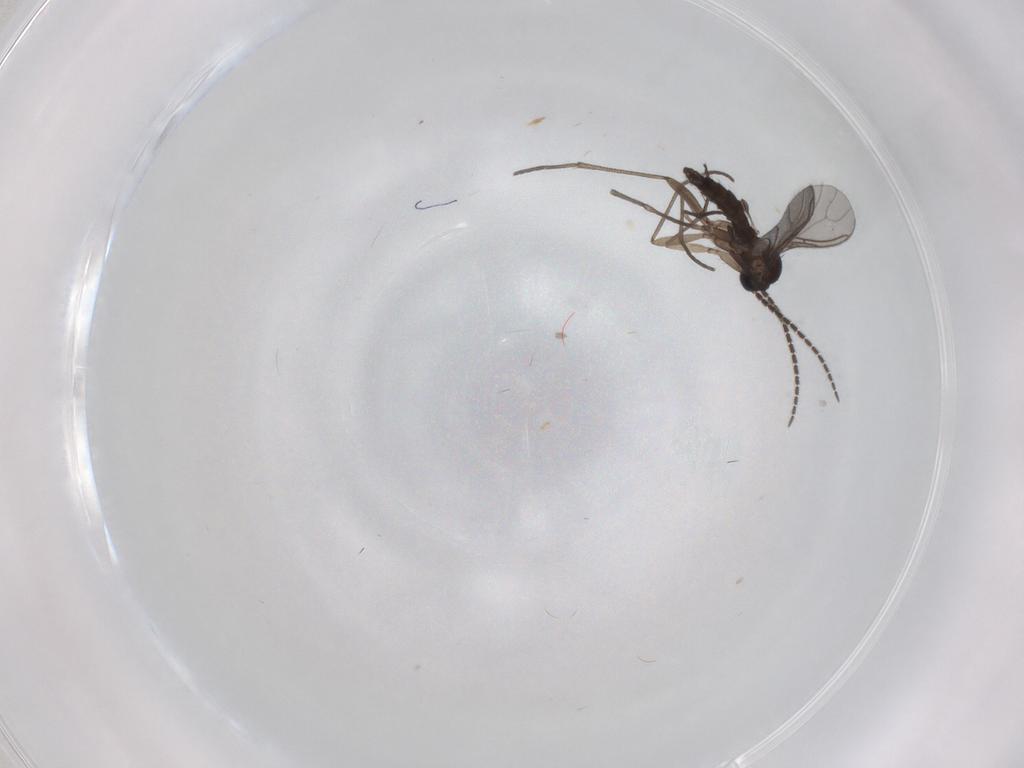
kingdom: Animalia
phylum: Arthropoda
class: Insecta
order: Diptera
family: Sciaridae
